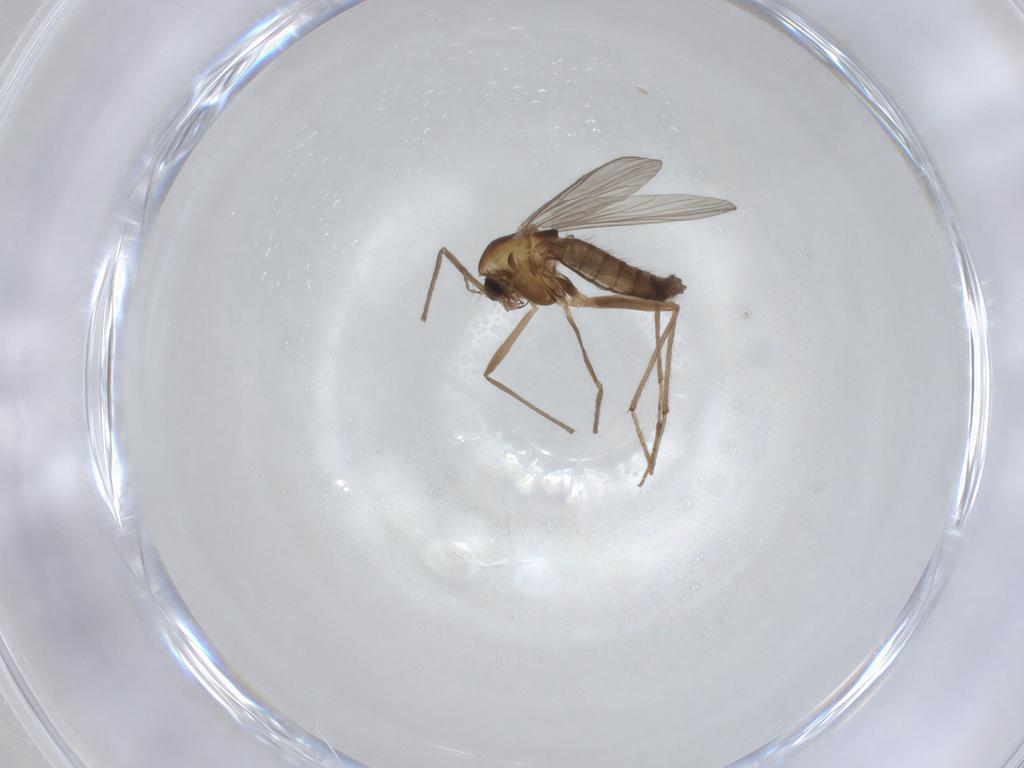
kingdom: Animalia
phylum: Arthropoda
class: Insecta
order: Diptera
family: Chironomidae
